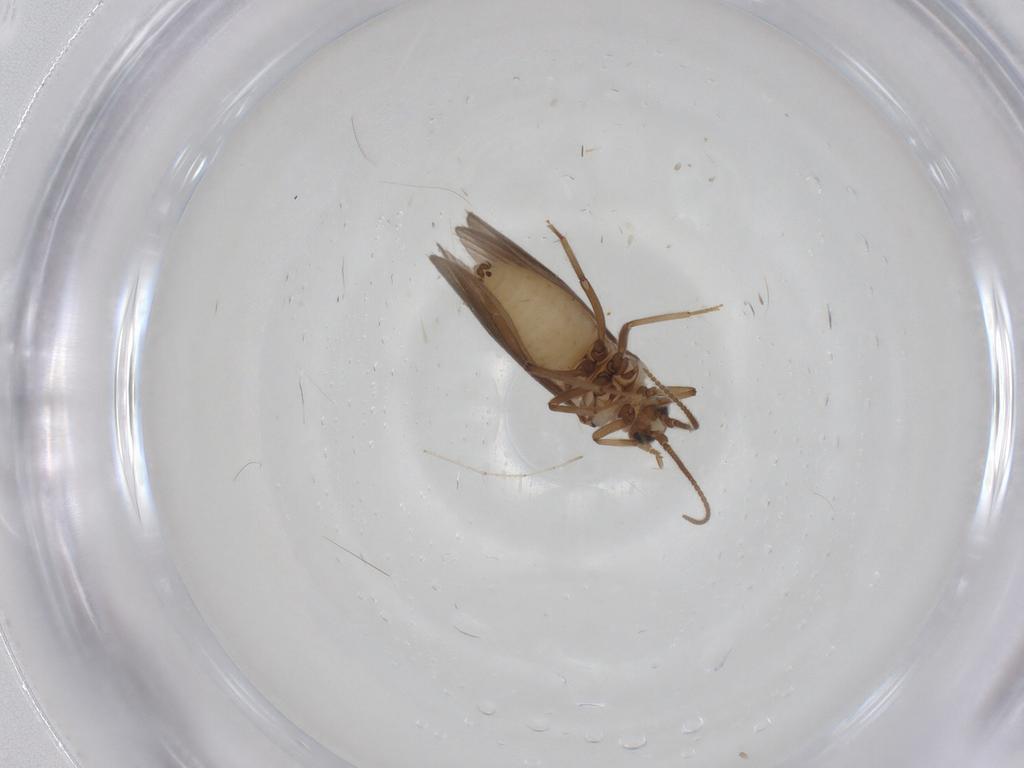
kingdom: Animalia
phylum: Arthropoda
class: Insecta
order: Neuroptera
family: Coniopterygidae
